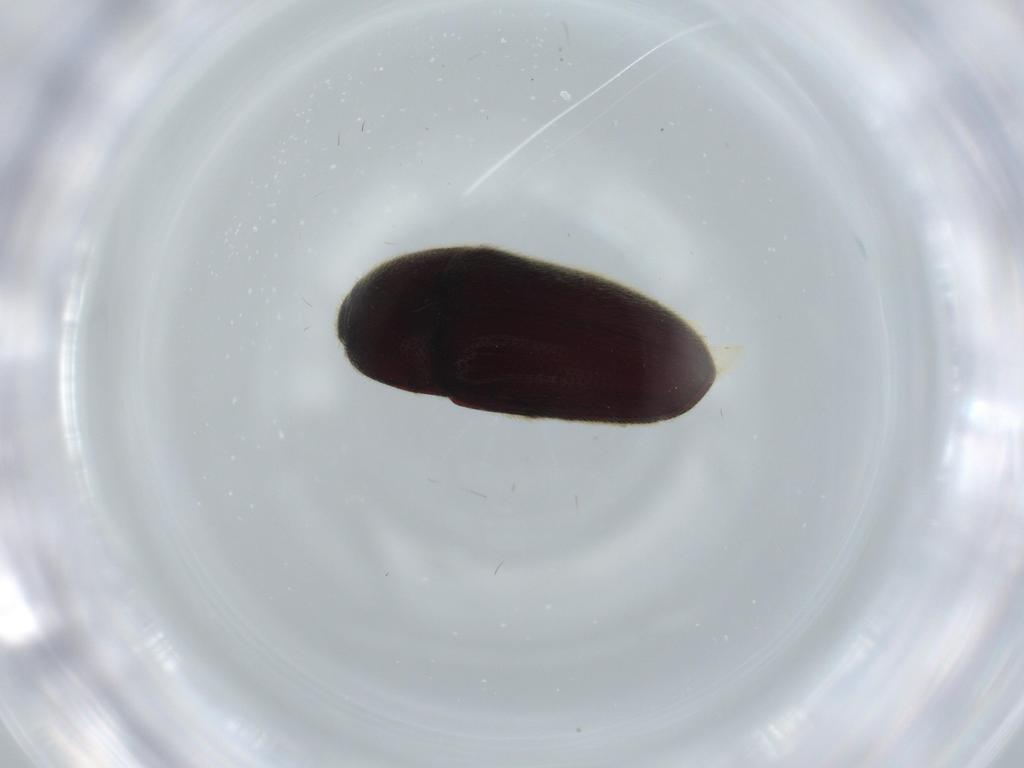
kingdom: Animalia
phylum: Arthropoda
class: Insecta
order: Coleoptera
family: Throscidae
